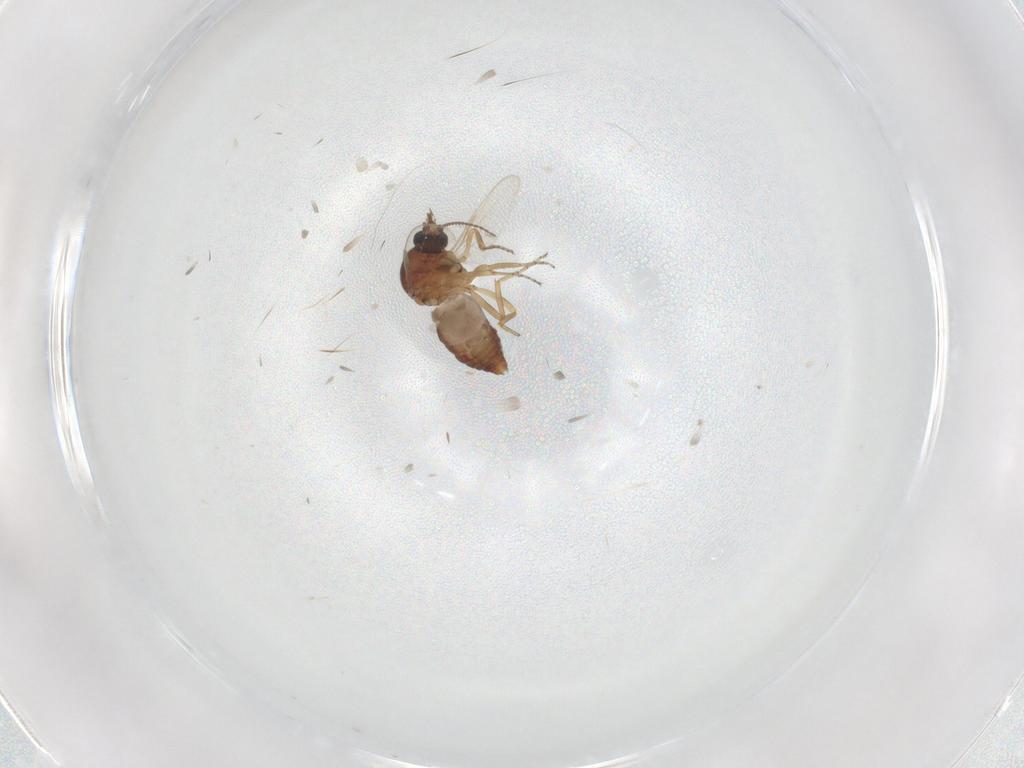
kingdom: Animalia
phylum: Arthropoda
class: Insecta
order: Diptera
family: Ceratopogonidae
